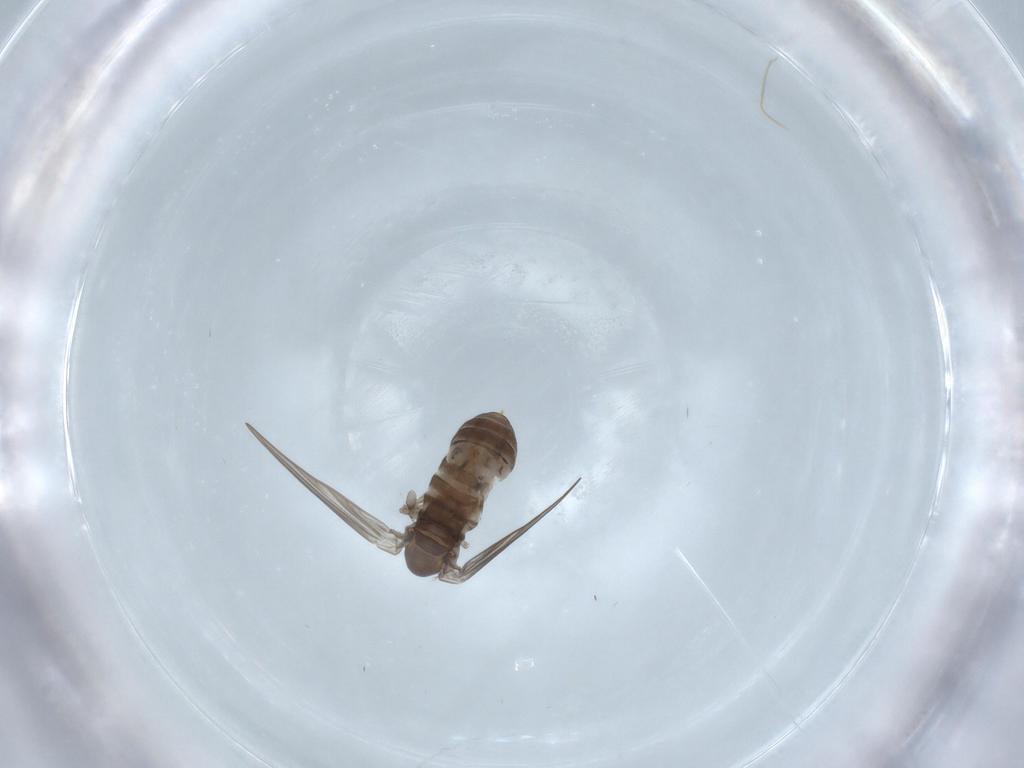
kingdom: Animalia
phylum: Arthropoda
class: Insecta
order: Diptera
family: Psychodidae
